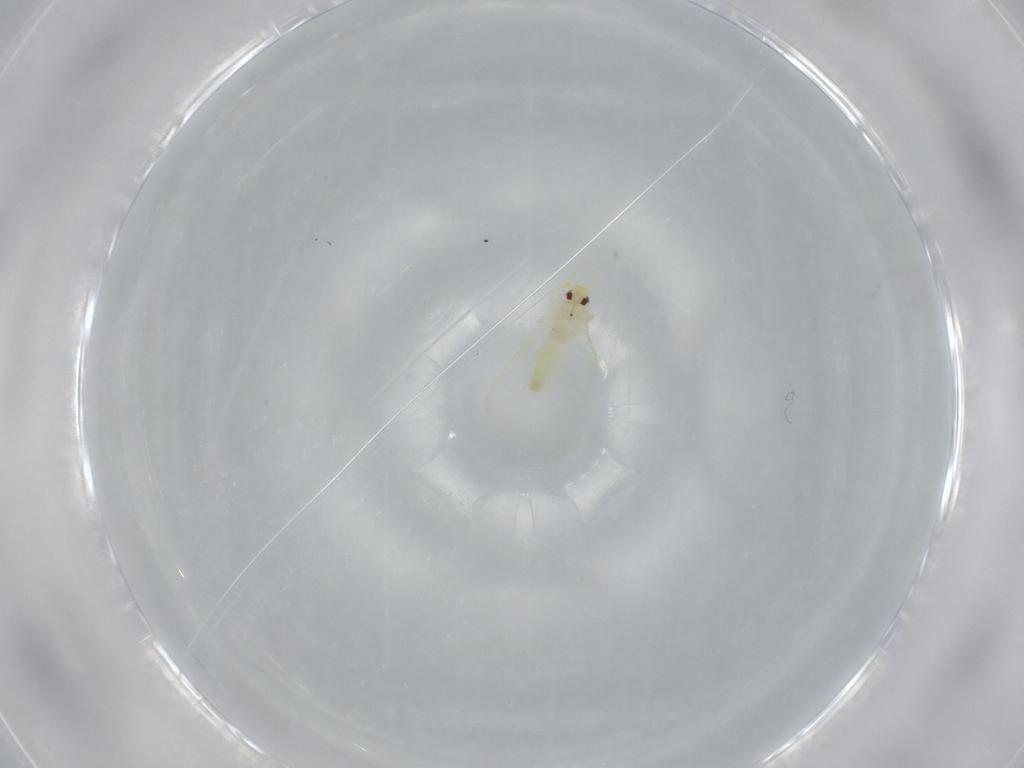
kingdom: Animalia
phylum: Arthropoda
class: Insecta
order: Hemiptera
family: Aleyrodidae
